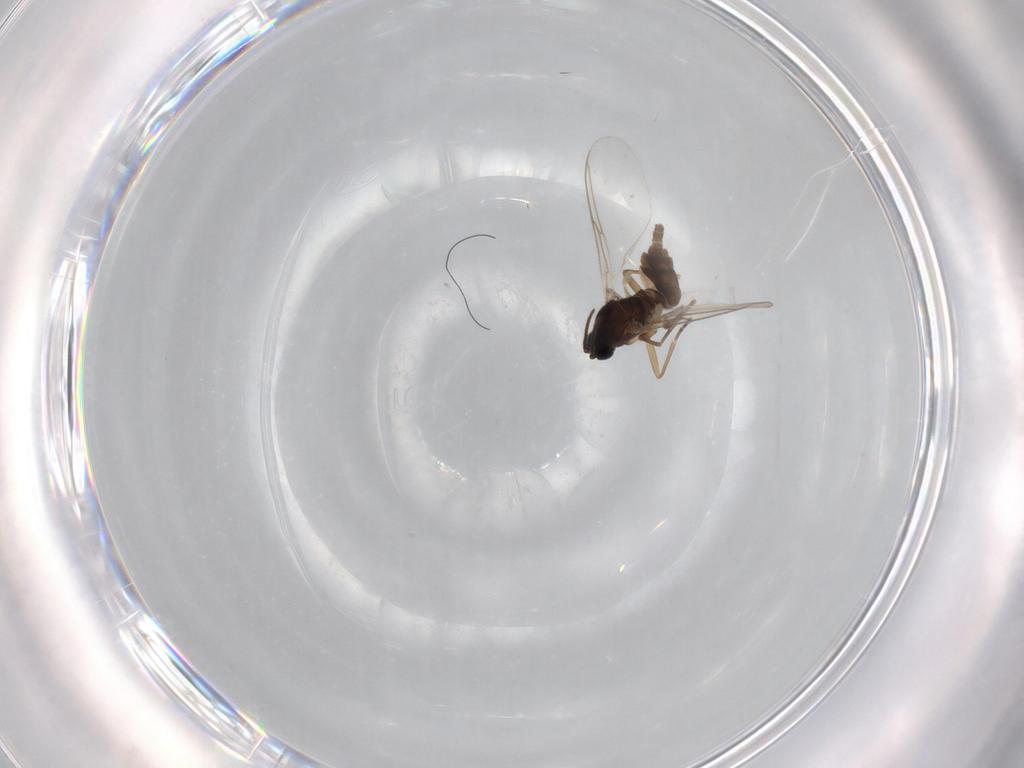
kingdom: Animalia
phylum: Arthropoda
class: Insecta
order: Diptera
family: Sciaridae
